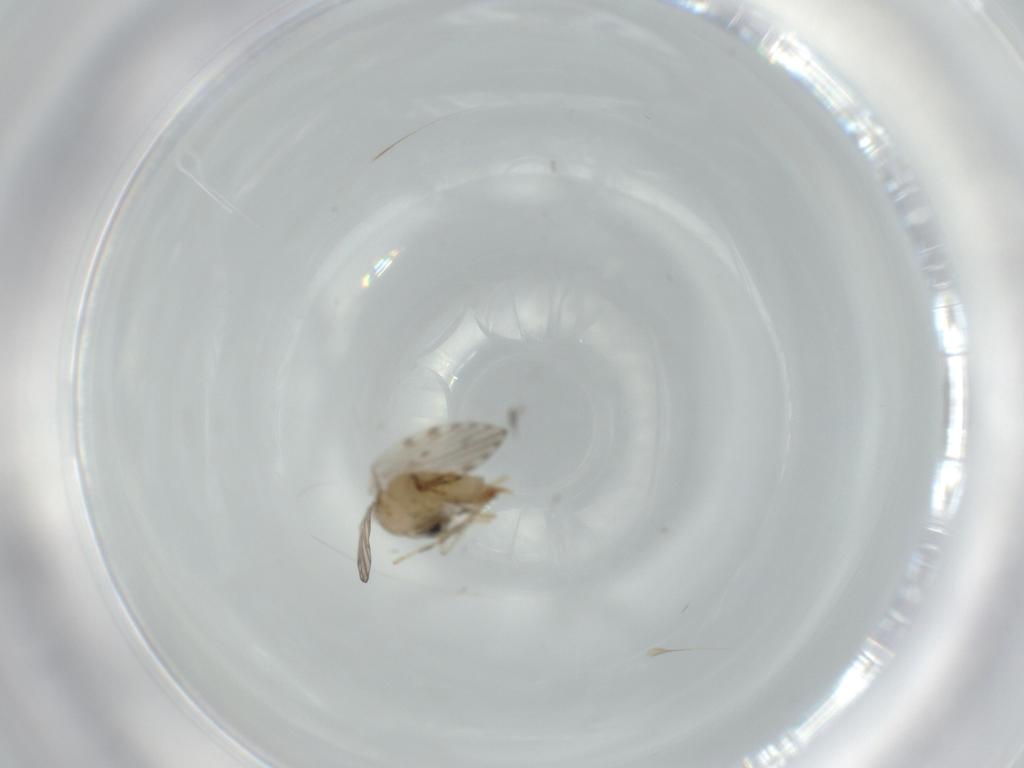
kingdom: Animalia
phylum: Arthropoda
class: Insecta
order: Diptera
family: Psychodidae
